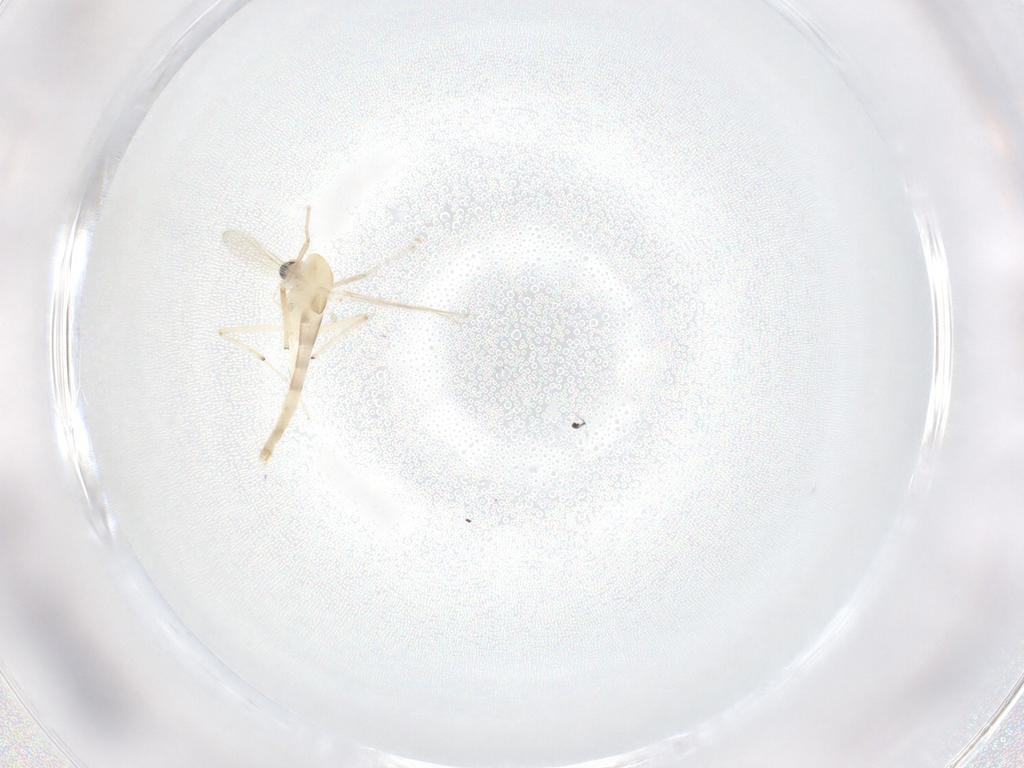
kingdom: Animalia
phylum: Arthropoda
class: Insecta
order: Diptera
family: Chironomidae
